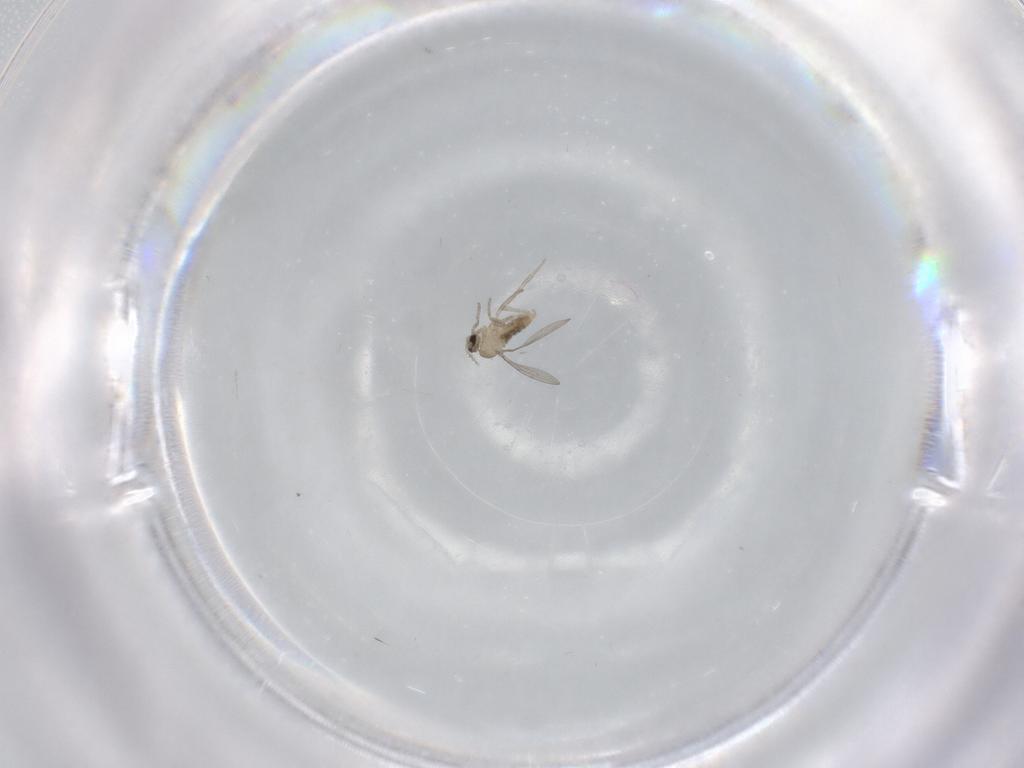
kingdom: Animalia
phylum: Arthropoda
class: Insecta
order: Diptera
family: Cecidomyiidae
